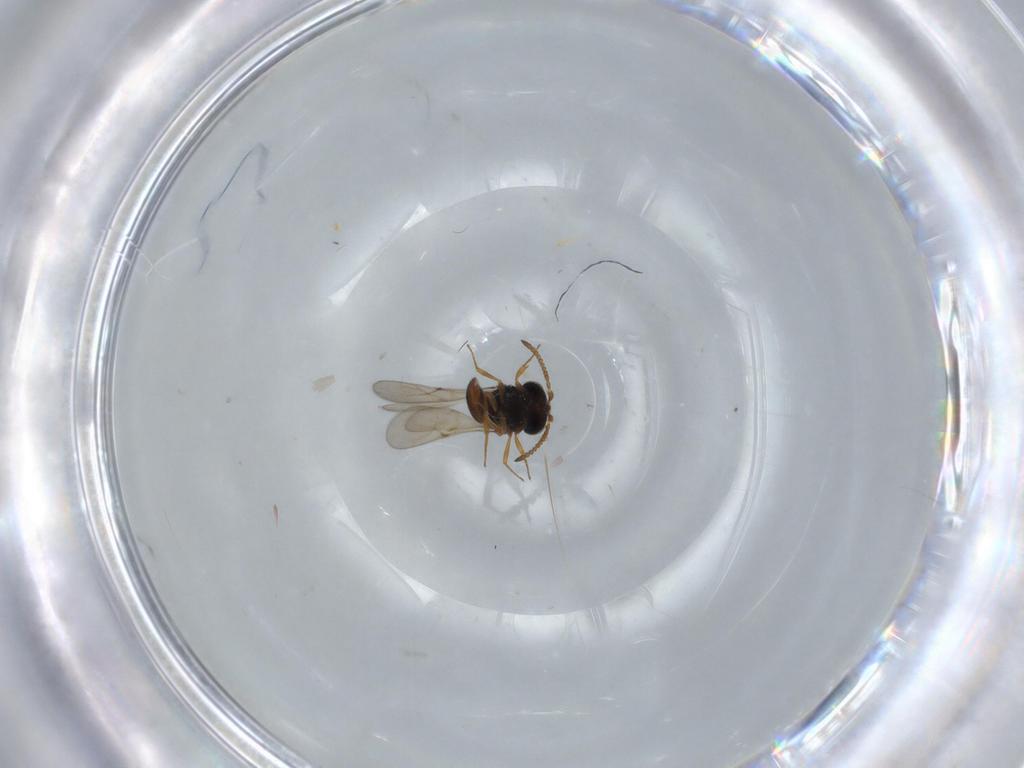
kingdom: Animalia
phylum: Arthropoda
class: Insecta
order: Hymenoptera
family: Scelionidae
